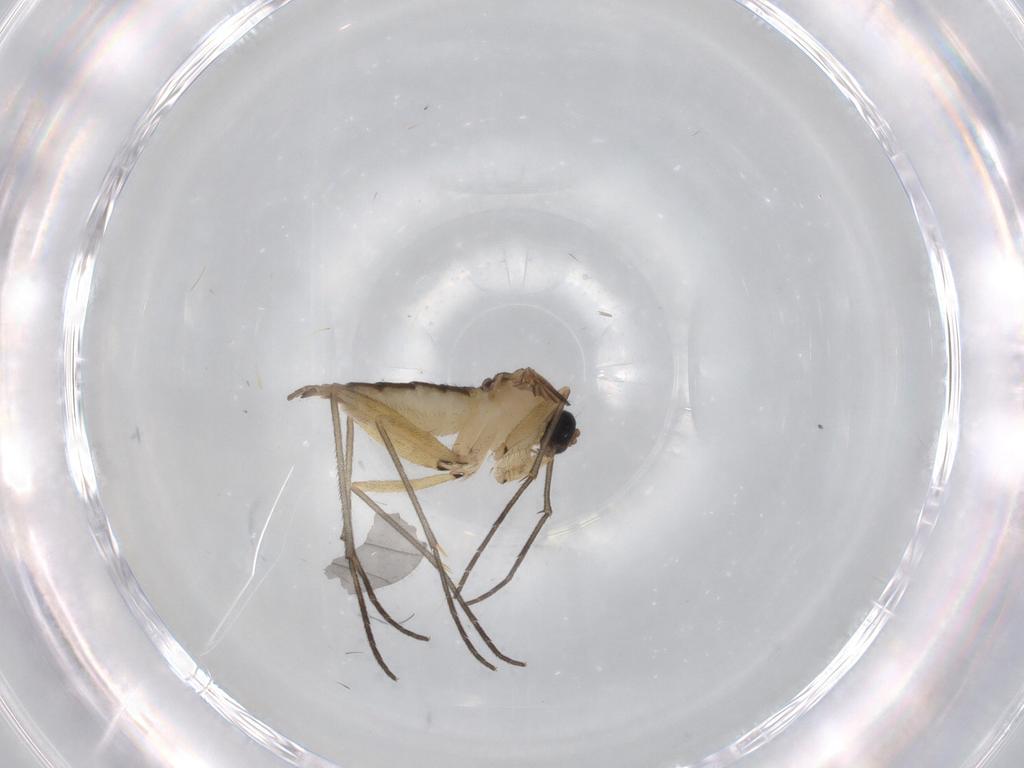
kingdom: Animalia
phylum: Arthropoda
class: Insecta
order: Diptera
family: Sciaridae
